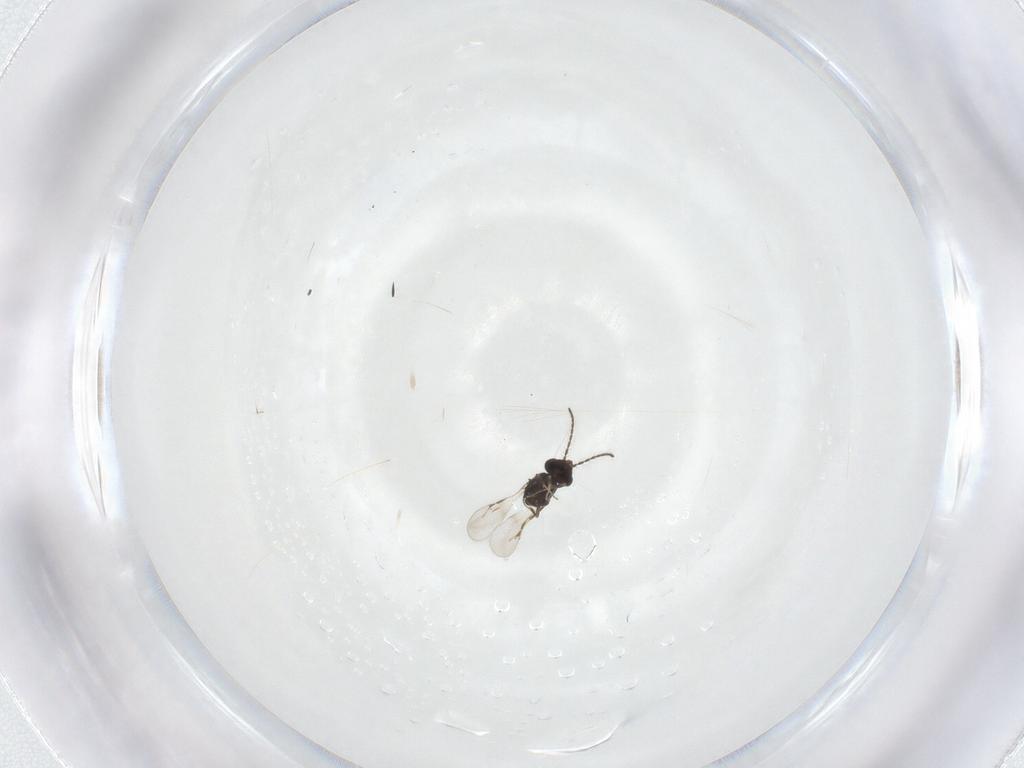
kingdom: Animalia
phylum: Arthropoda
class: Insecta
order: Hymenoptera
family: Ceraphronidae
